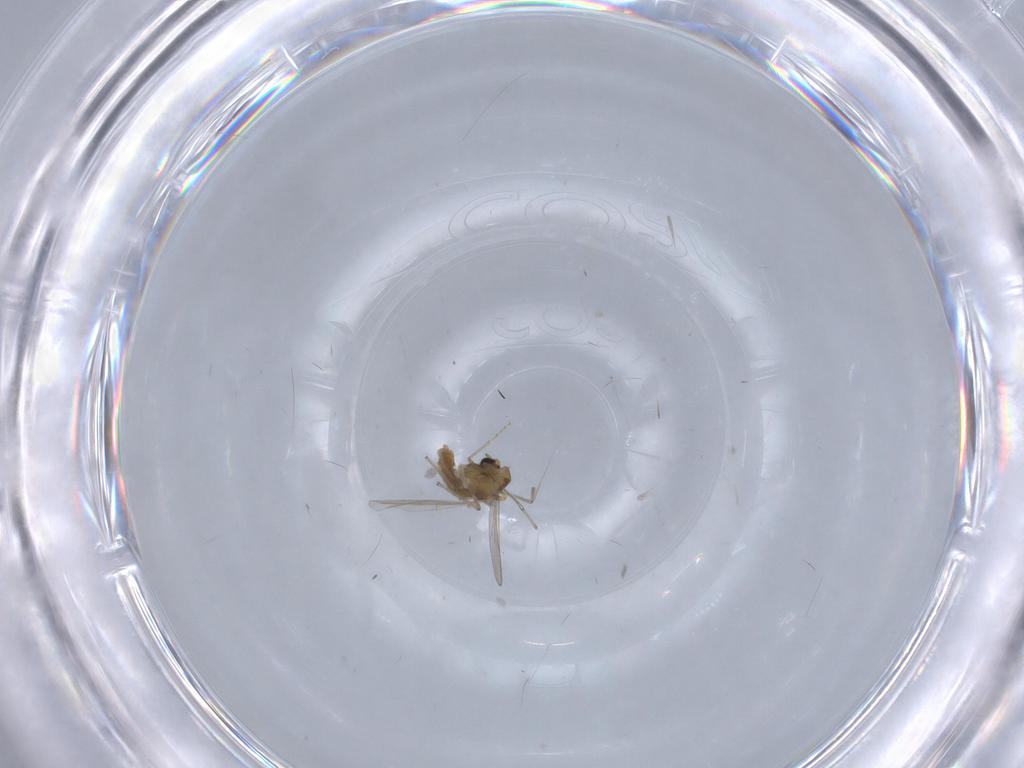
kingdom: Animalia
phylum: Arthropoda
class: Insecta
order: Diptera
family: Chironomidae
